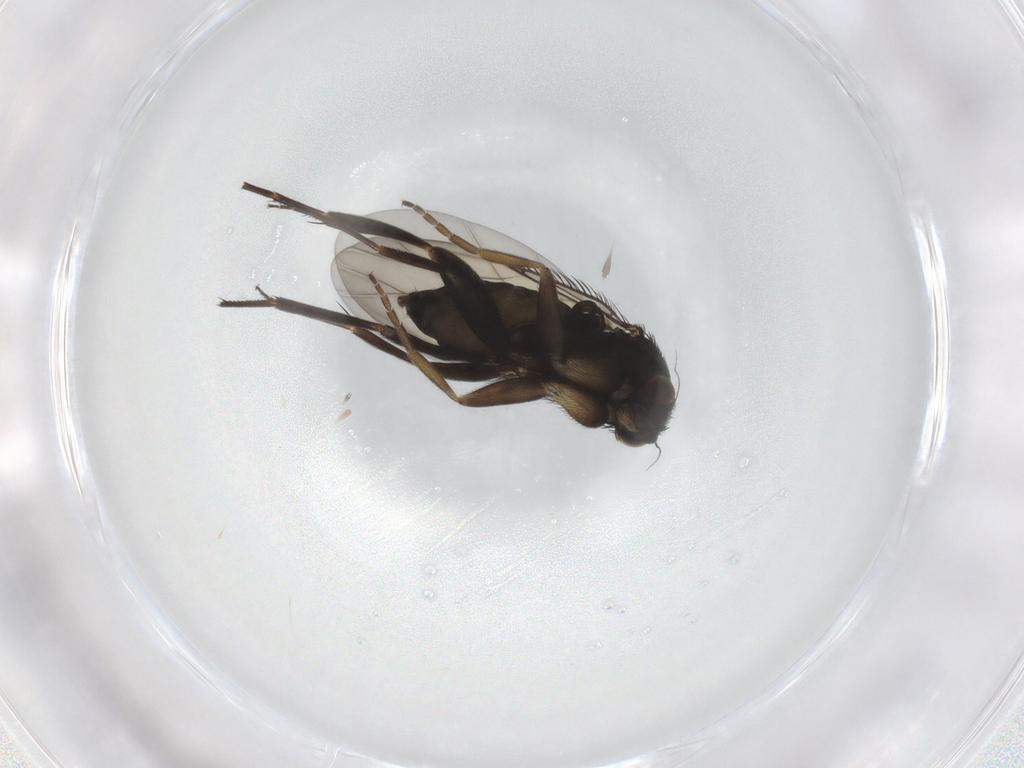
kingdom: Animalia
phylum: Arthropoda
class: Insecta
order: Diptera
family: Phoridae
